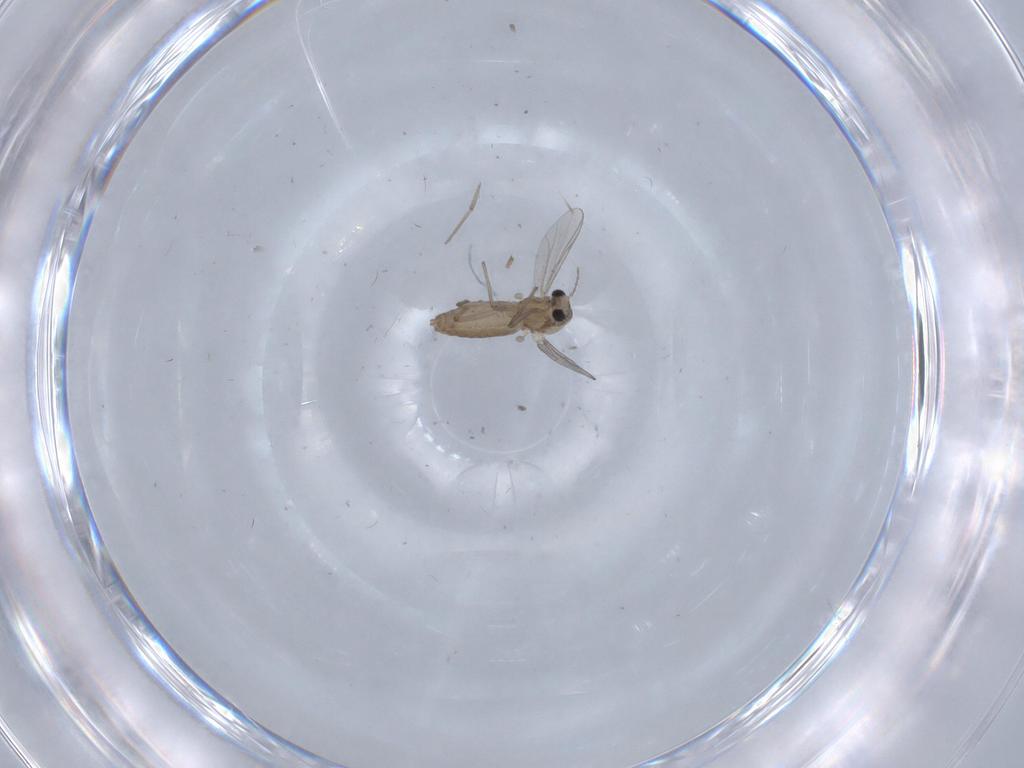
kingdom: Animalia
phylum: Arthropoda
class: Insecta
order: Diptera
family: Chironomidae
